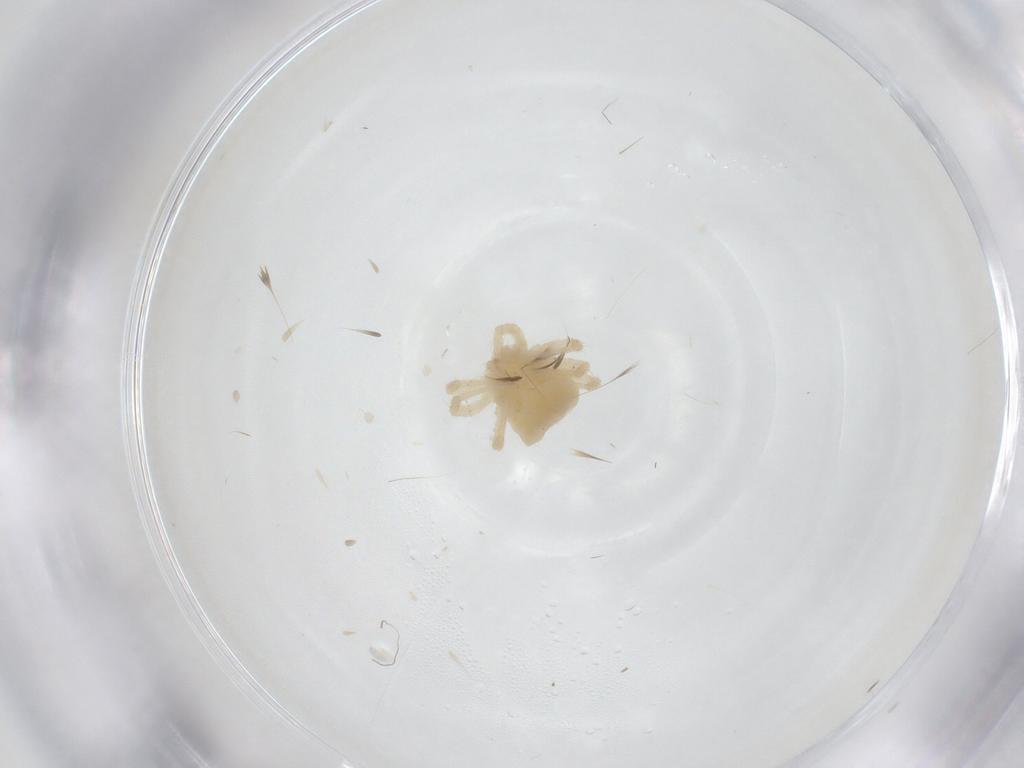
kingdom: Animalia
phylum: Arthropoda
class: Arachnida
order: Trombidiformes
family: Anystidae
